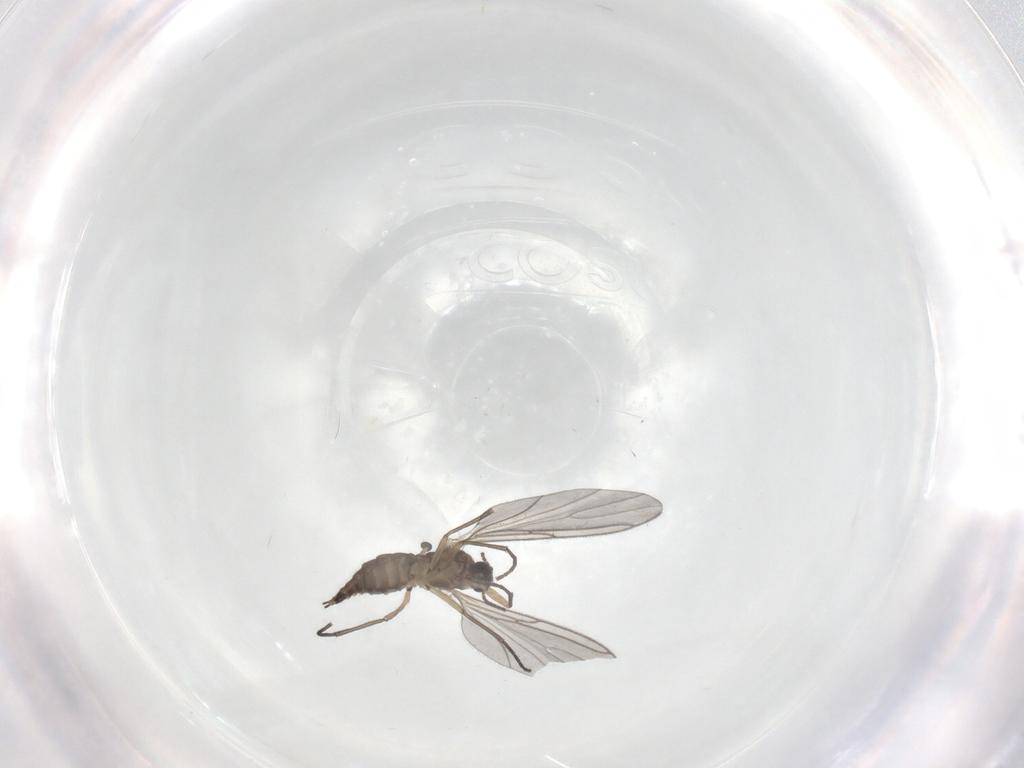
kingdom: Animalia
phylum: Arthropoda
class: Insecta
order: Diptera
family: Sciaridae
